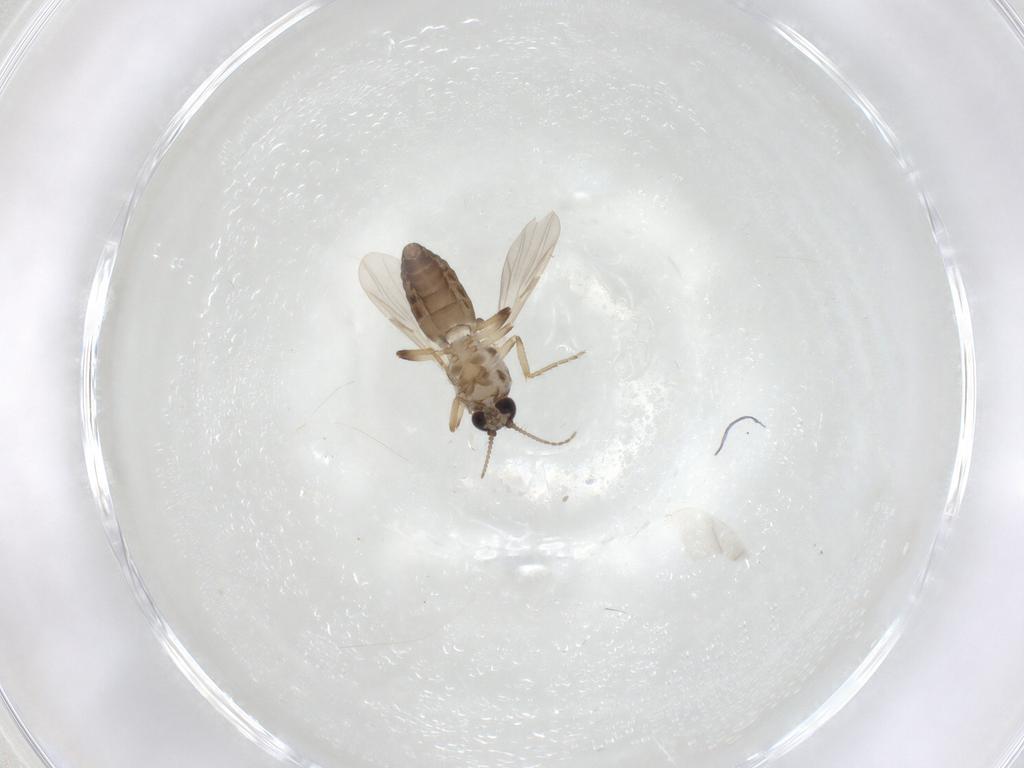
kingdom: Animalia
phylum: Arthropoda
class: Insecta
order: Diptera
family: Ceratopogonidae
